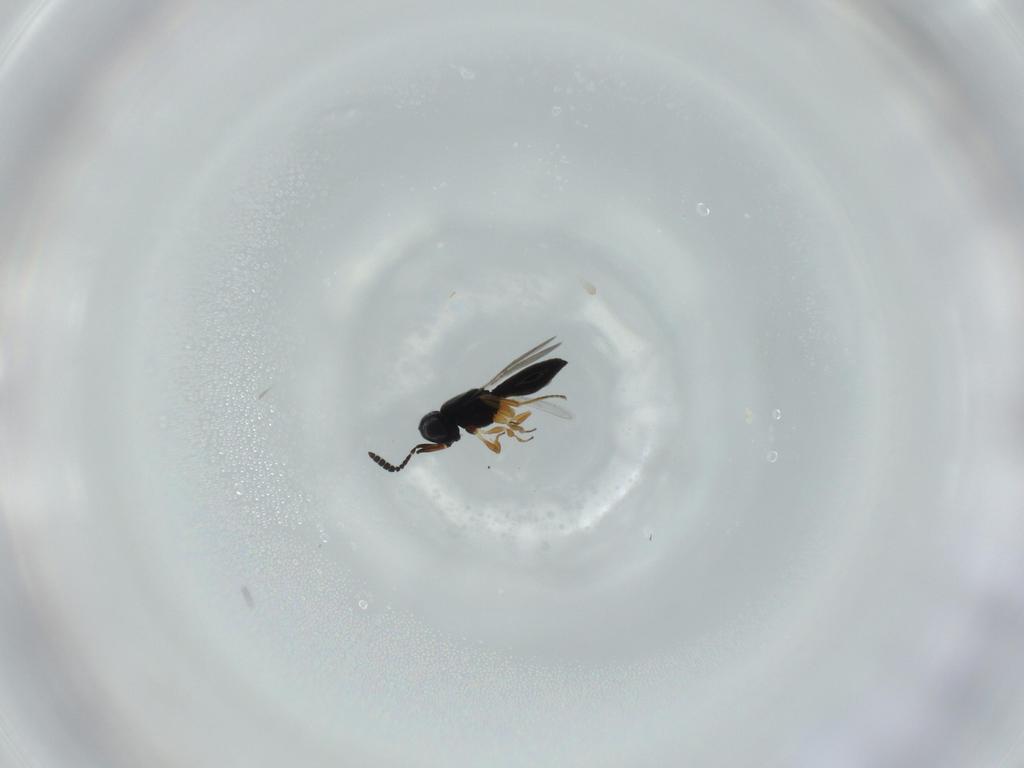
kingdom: Animalia
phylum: Arthropoda
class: Insecta
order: Hymenoptera
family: Scelionidae
